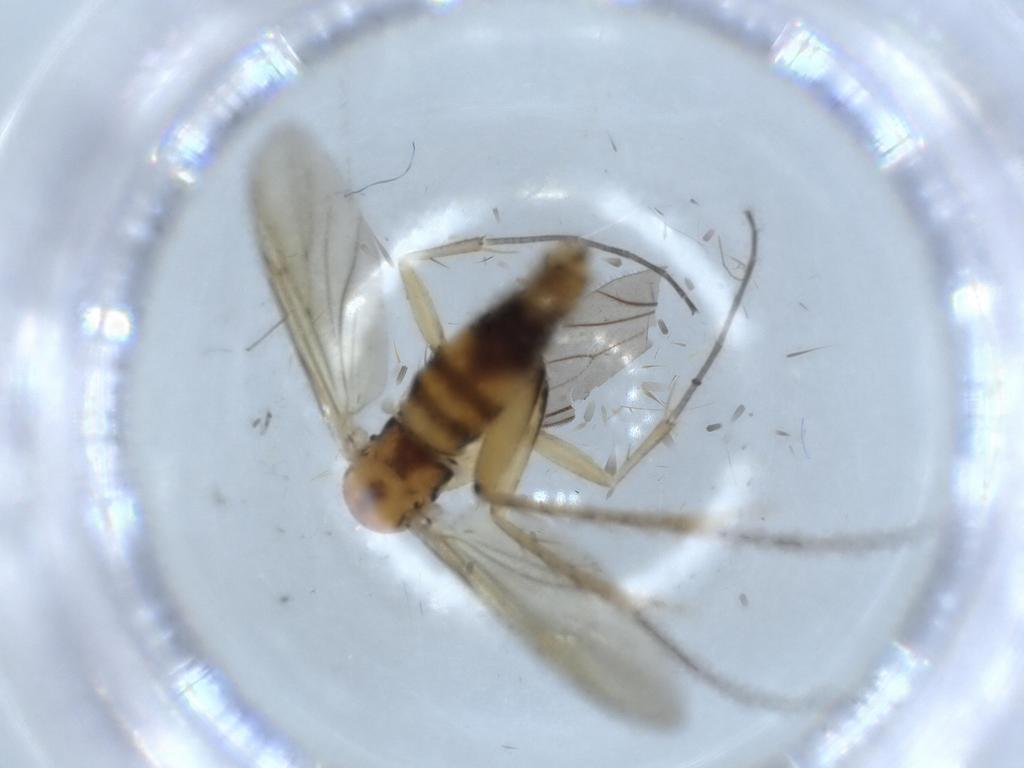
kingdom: Animalia
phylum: Arthropoda
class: Insecta
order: Diptera
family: Mycetophilidae
